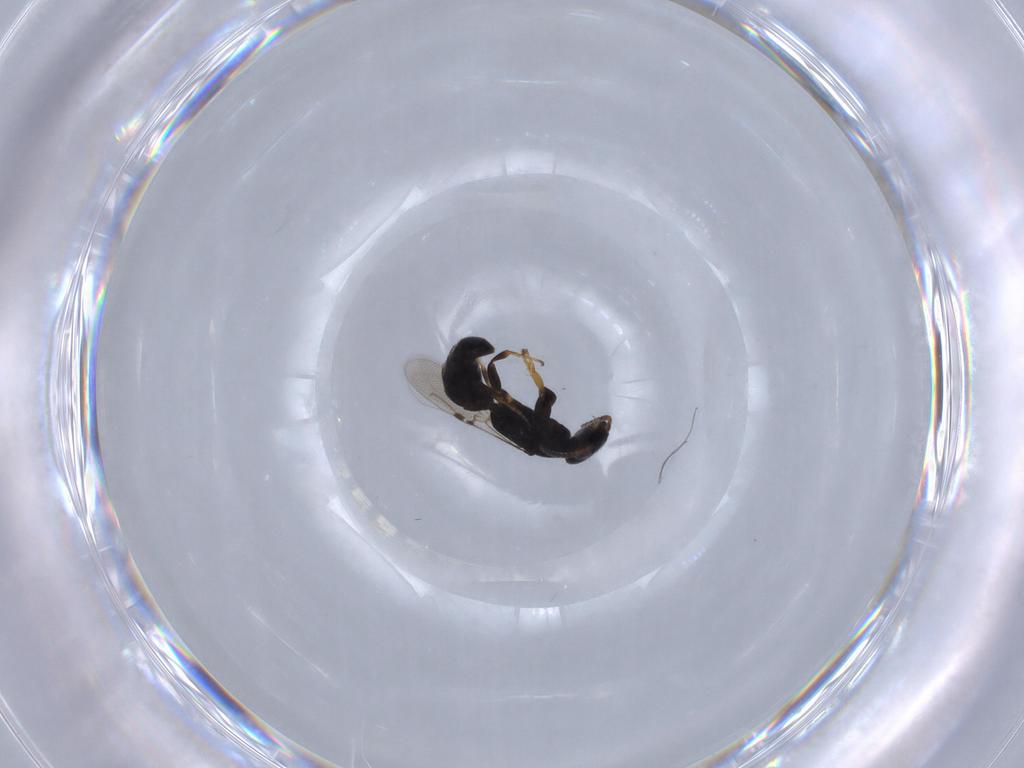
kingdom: Animalia
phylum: Arthropoda
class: Insecta
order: Hymenoptera
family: Bethylidae
